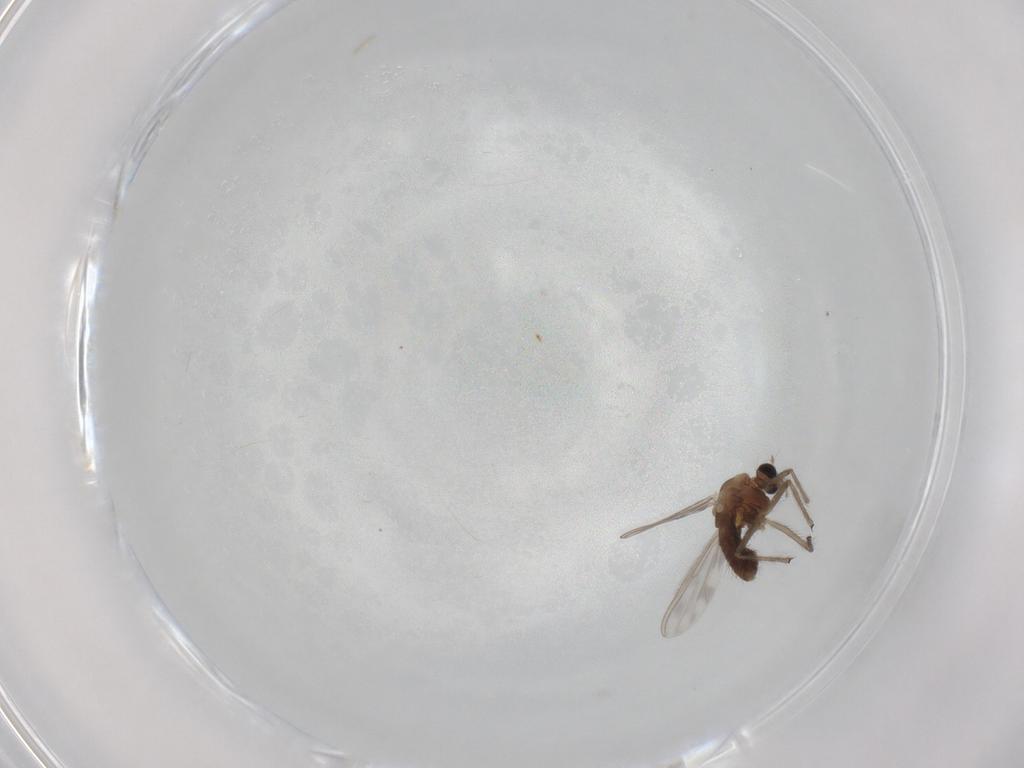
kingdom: Animalia
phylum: Arthropoda
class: Insecta
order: Diptera
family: Chironomidae
